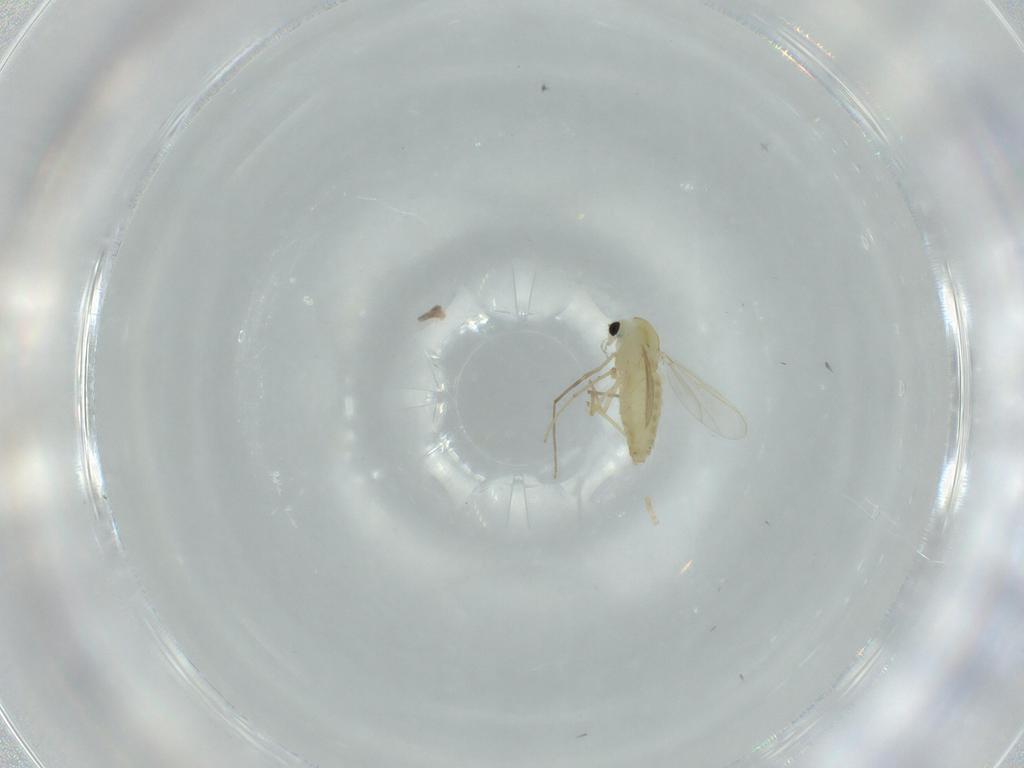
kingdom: Animalia
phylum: Arthropoda
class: Insecta
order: Diptera
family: Chironomidae
